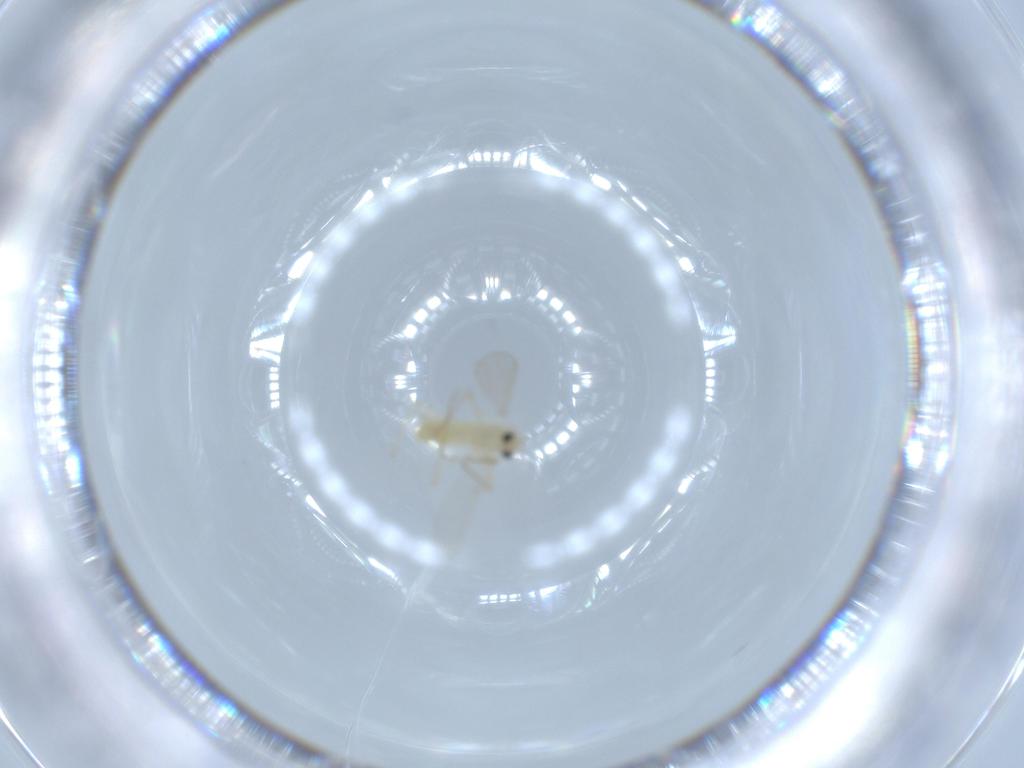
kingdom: Animalia
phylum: Arthropoda
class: Insecta
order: Diptera
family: Chironomidae
